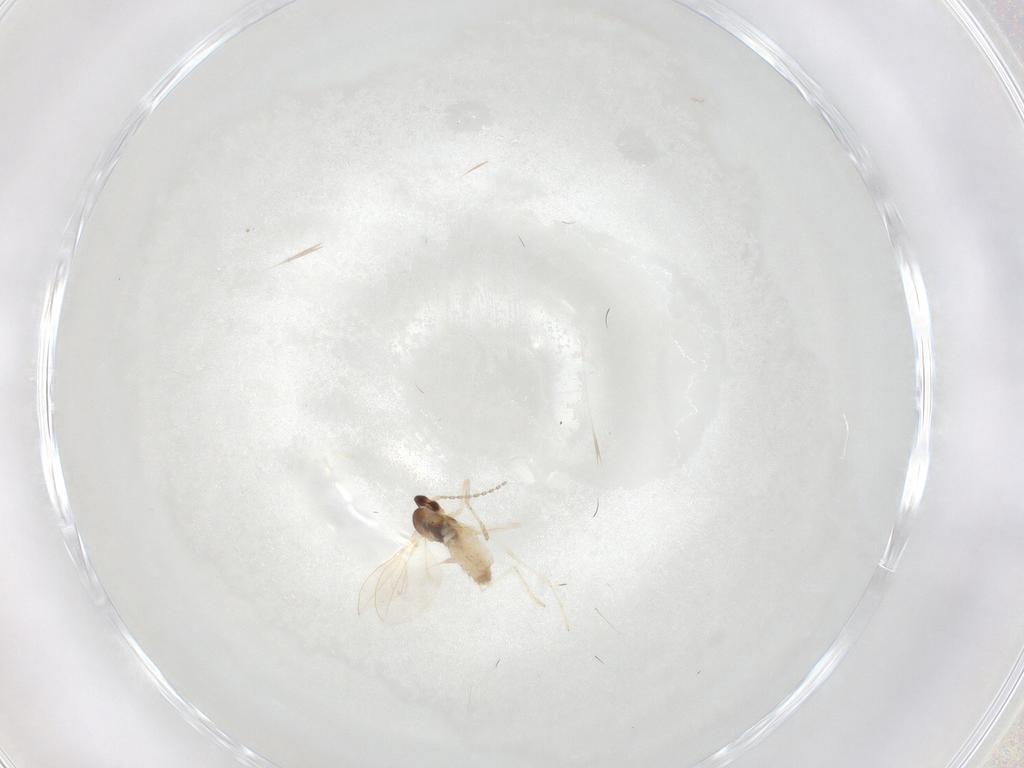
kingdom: Animalia
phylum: Arthropoda
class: Insecta
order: Diptera
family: Cecidomyiidae
